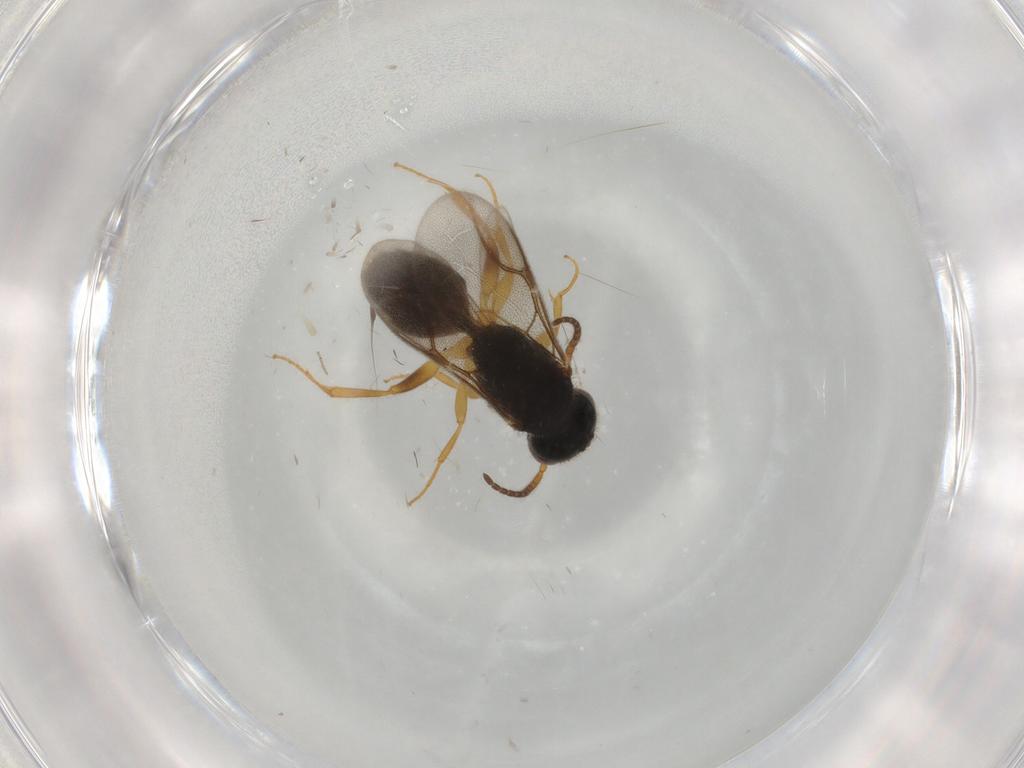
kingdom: Animalia
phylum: Arthropoda
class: Insecta
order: Hymenoptera
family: Bethylidae
